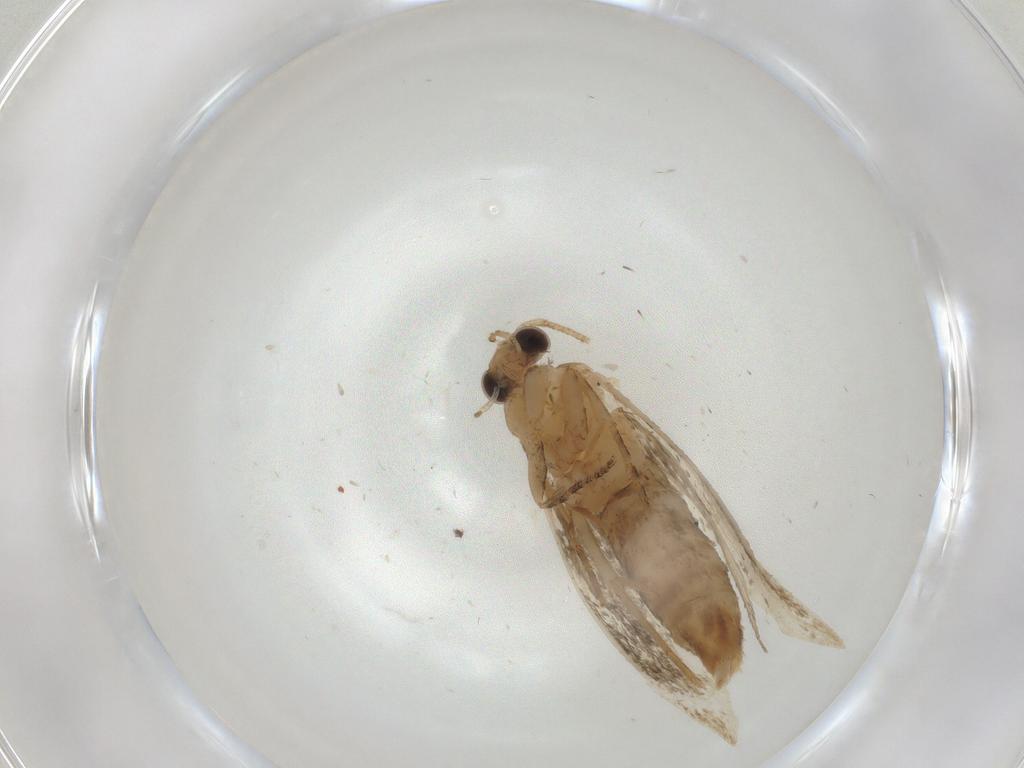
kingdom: Animalia
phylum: Arthropoda
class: Insecta
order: Lepidoptera
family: Tineidae
